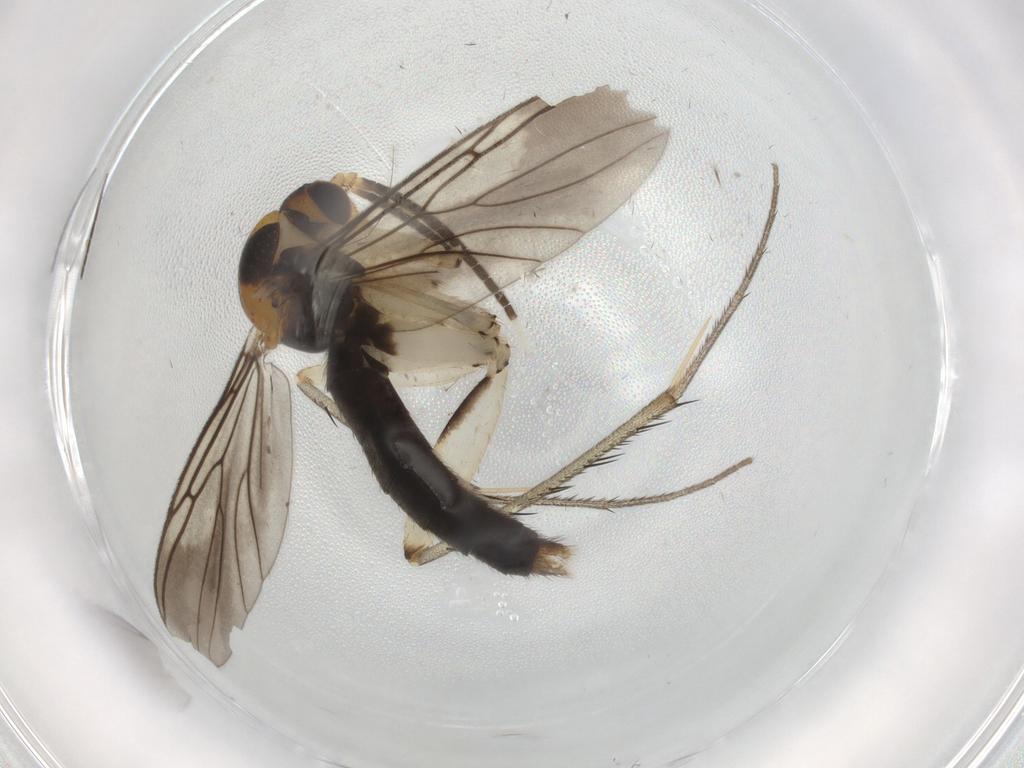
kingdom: Animalia
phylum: Arthropoda
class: Insecta
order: Diptera
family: Mycetophilidae
